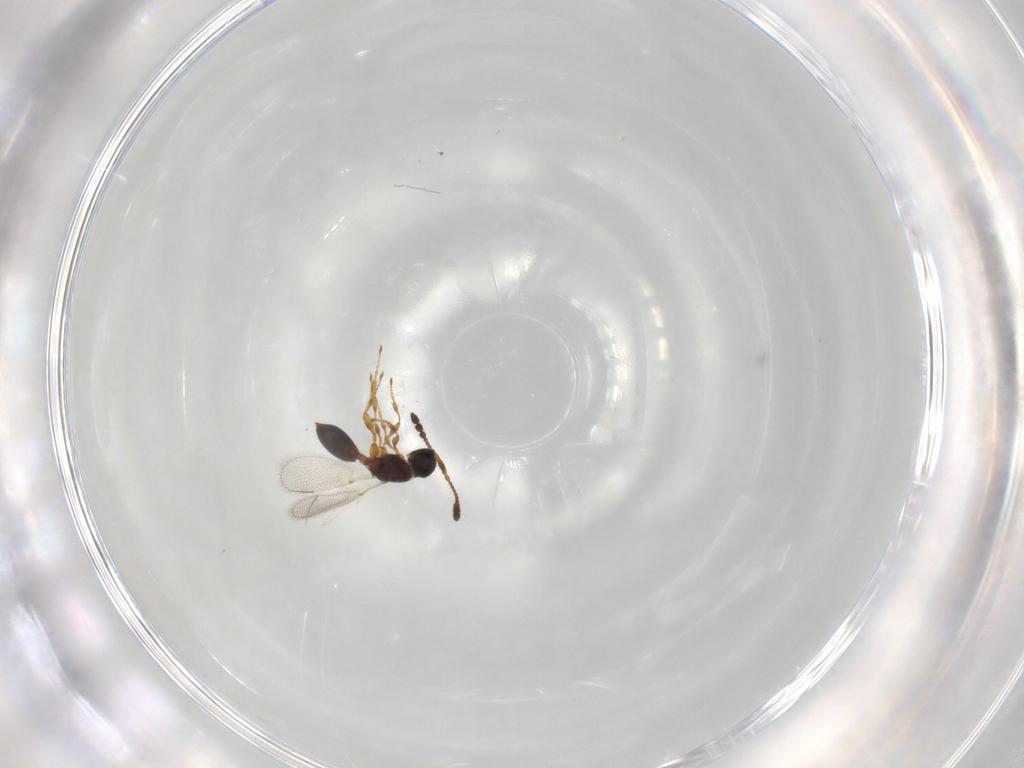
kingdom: Animalia
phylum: Arthropoda
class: Insecta
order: Hymenoptera
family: Diapriidae
